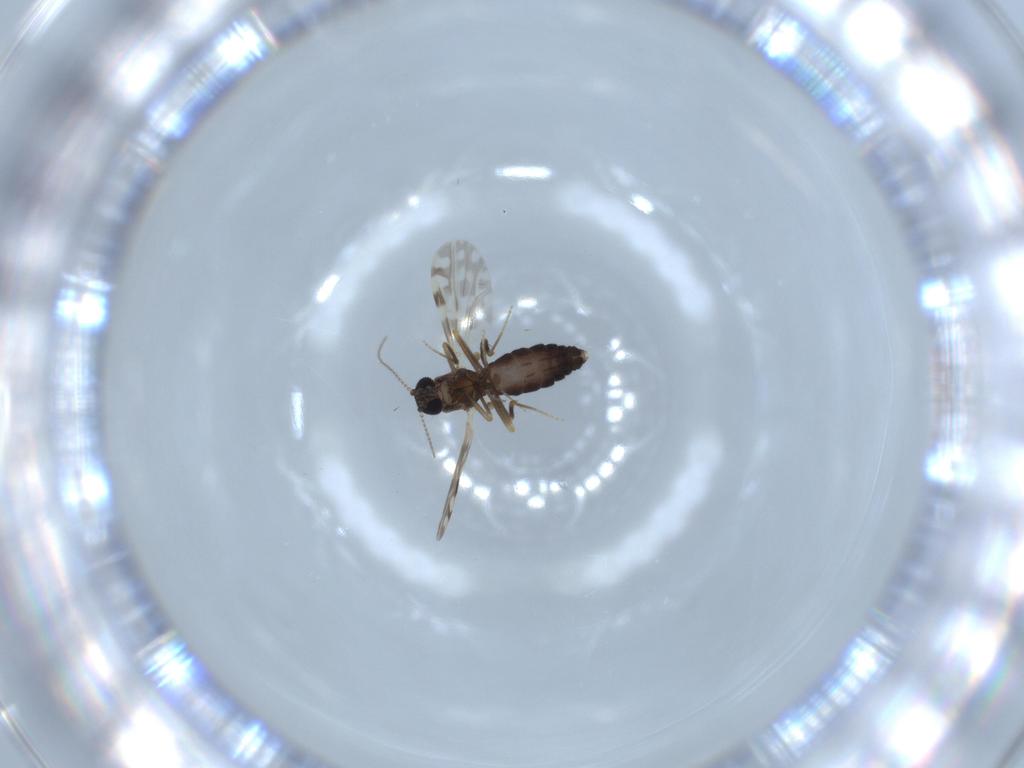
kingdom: Animalia
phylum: Arthropoda
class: Insecta
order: Diptera
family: Ceratopogonidae
